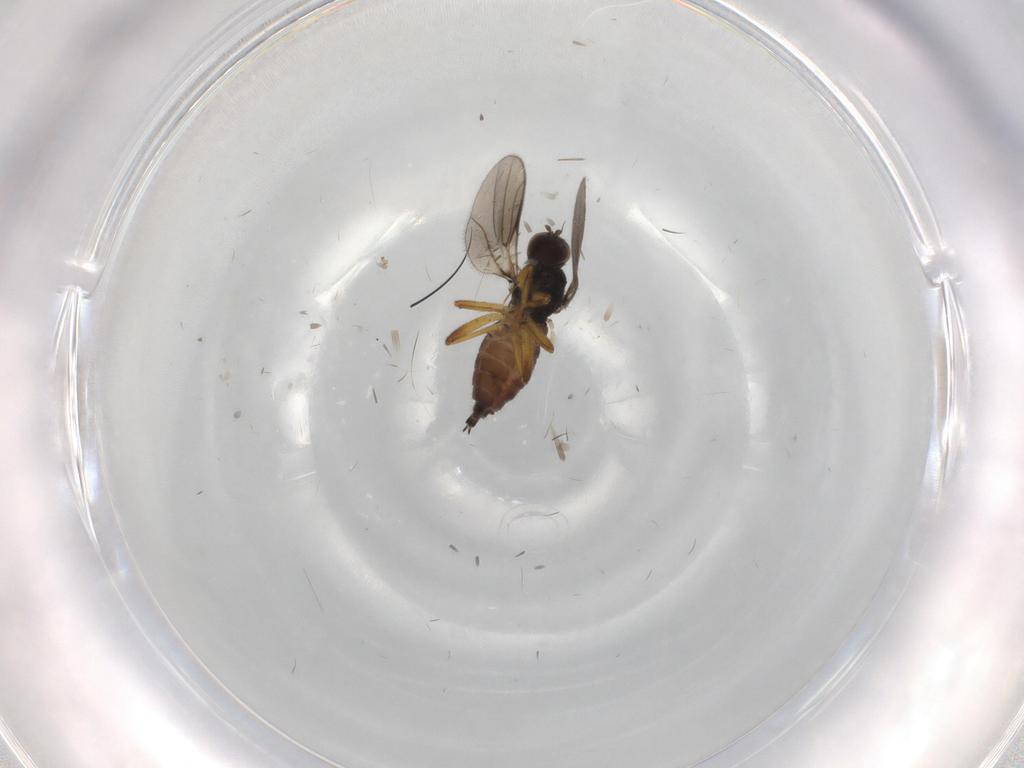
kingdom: Animalia
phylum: Arthropoda
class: Insecta
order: Diptera
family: Hybotidae
